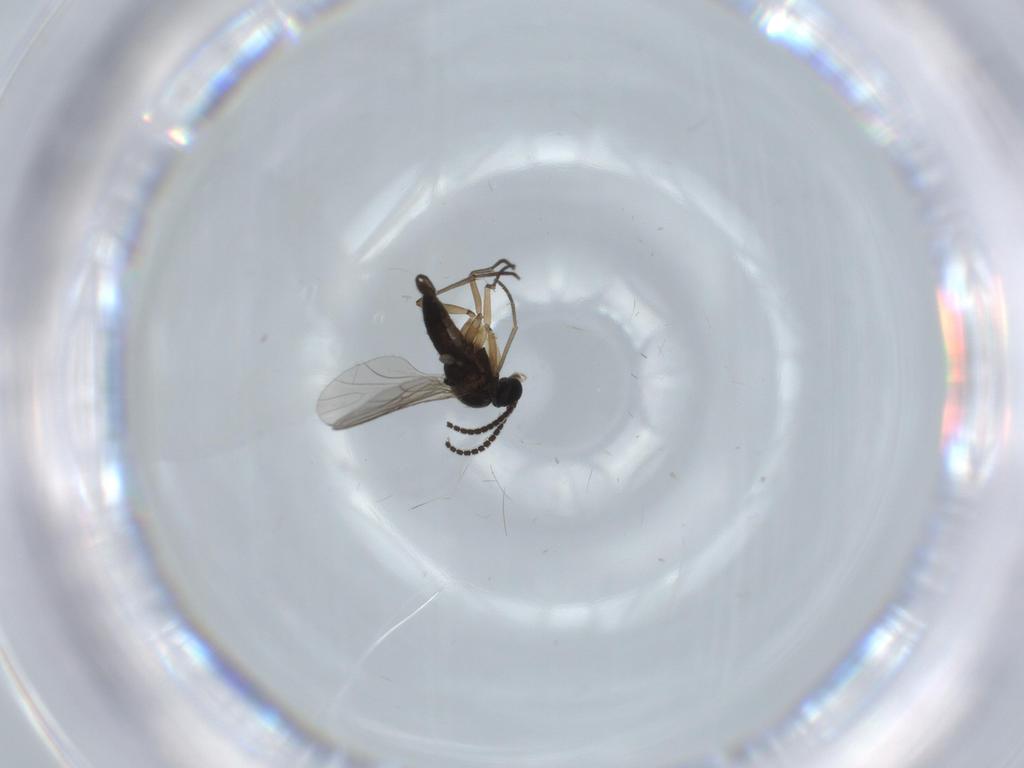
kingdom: Animalia
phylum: Arthropoda
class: Insecta
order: Diptera
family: Sciaridae
